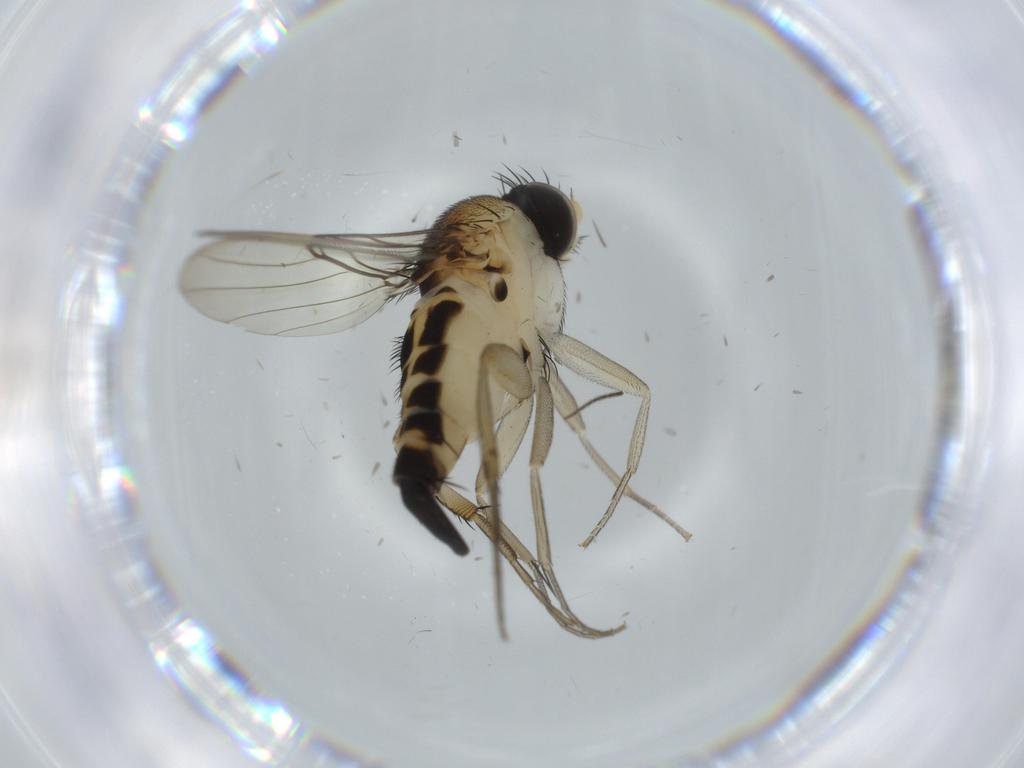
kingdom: Animalia
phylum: Arthropoda
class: Insecta
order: Diptera
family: Phoridae
